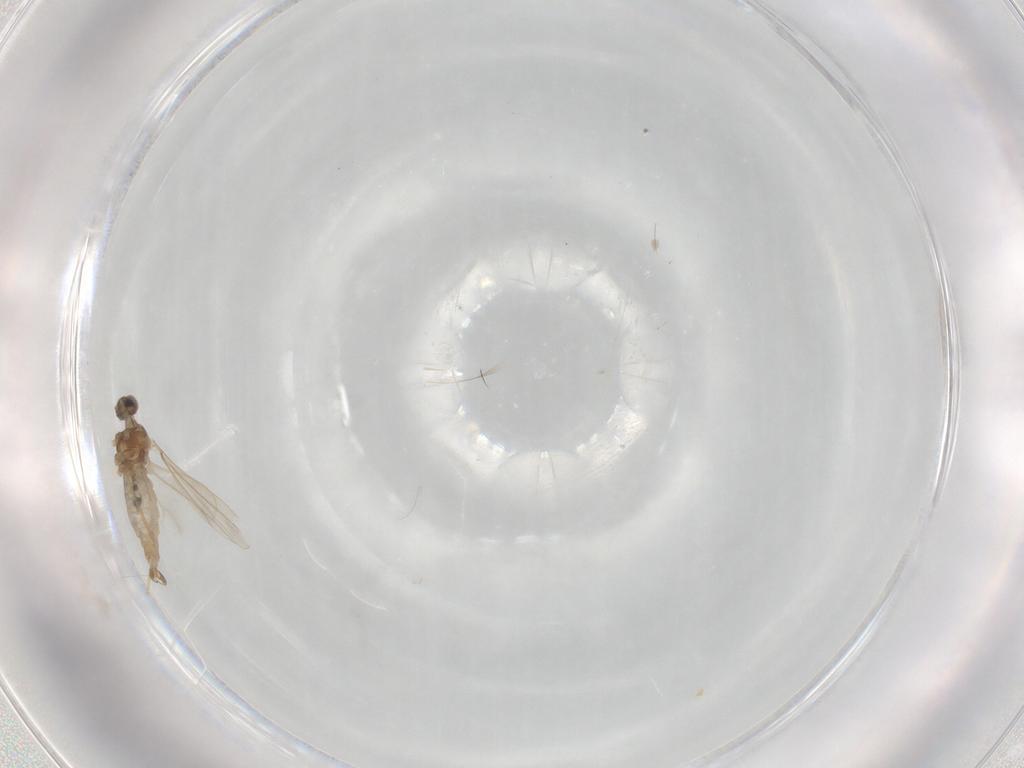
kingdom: Animalia
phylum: Arthropoda
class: Insecta
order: Diptera
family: Cecidomyiidae
